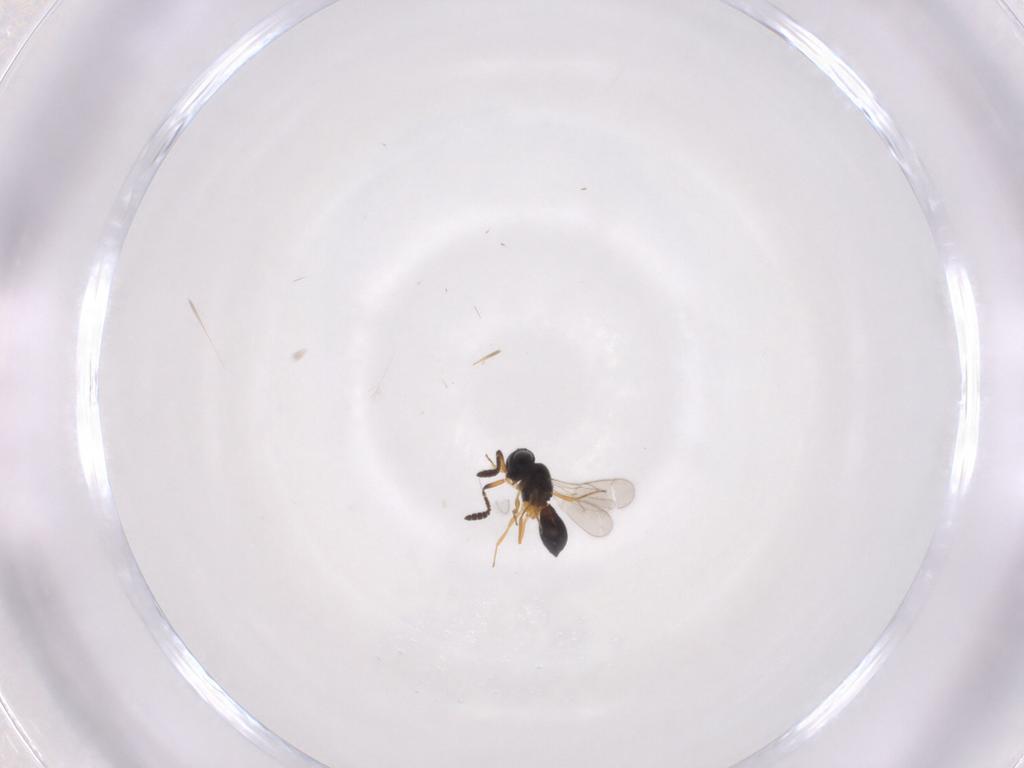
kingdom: Animalia
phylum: Arthropoda
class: Insecta
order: Hymenoptera
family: Scelionidae
